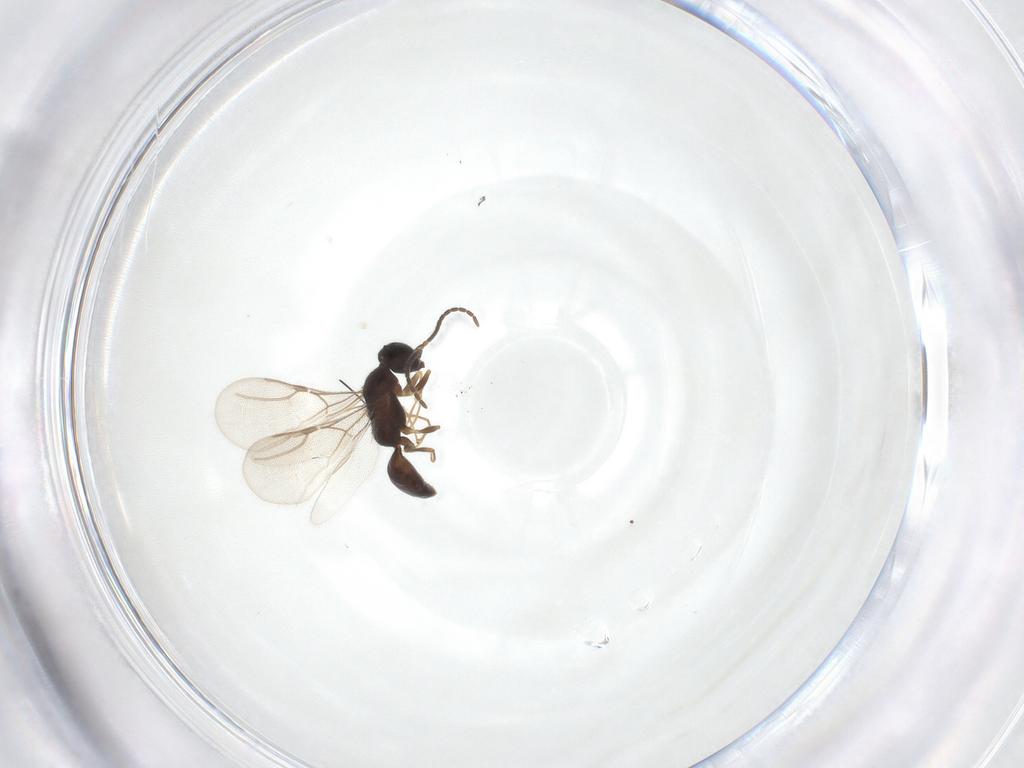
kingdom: Animalia
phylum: Arthropoda
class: Insecta
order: Hymenoptera
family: Bethylidae
